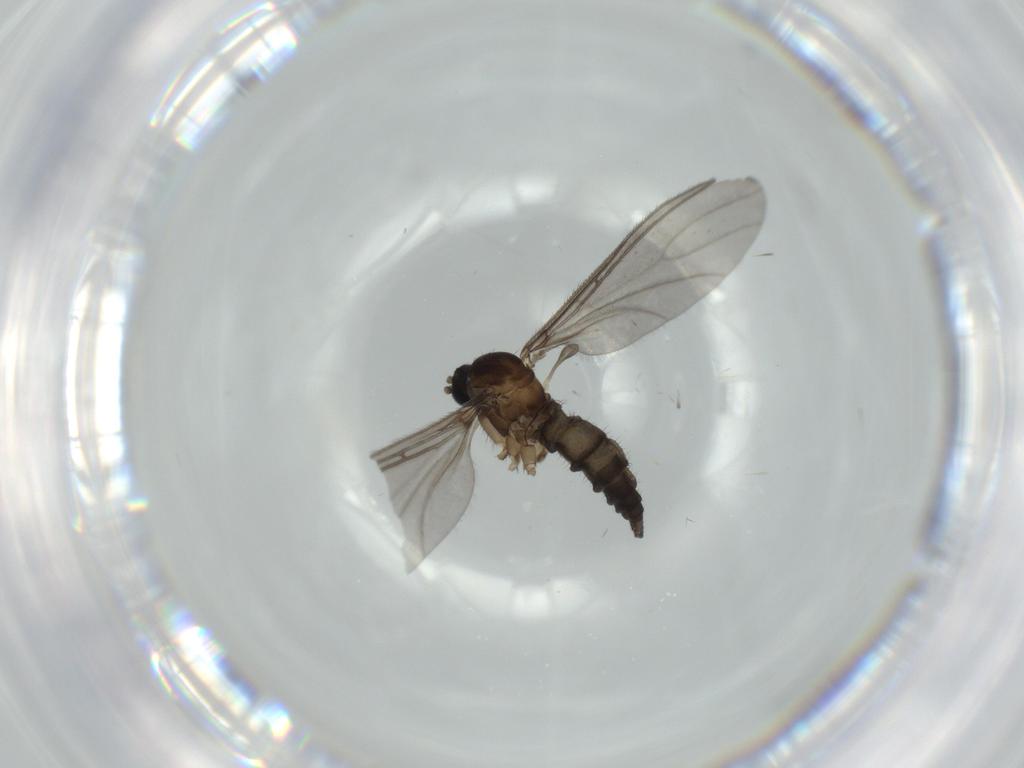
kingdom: Animalia
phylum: Arthropoda
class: Insecta
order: Diptera
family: Sciaridae
